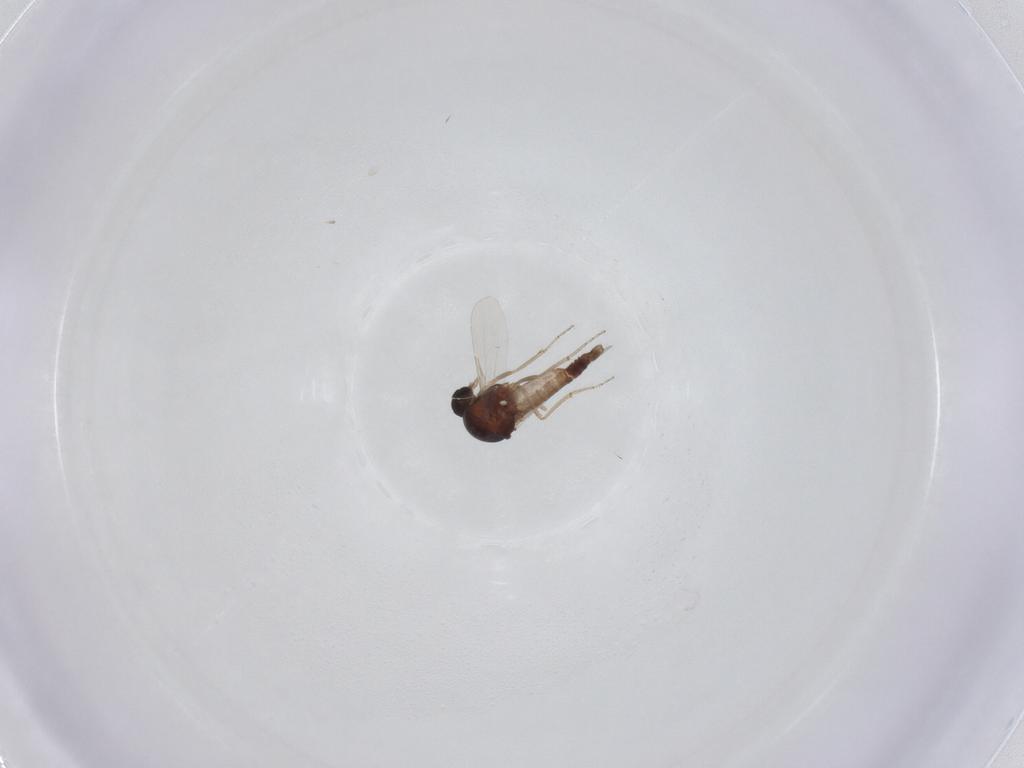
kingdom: Animalia
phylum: Arthropoda
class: Insecta
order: Diptera
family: Ceratopogonidae
